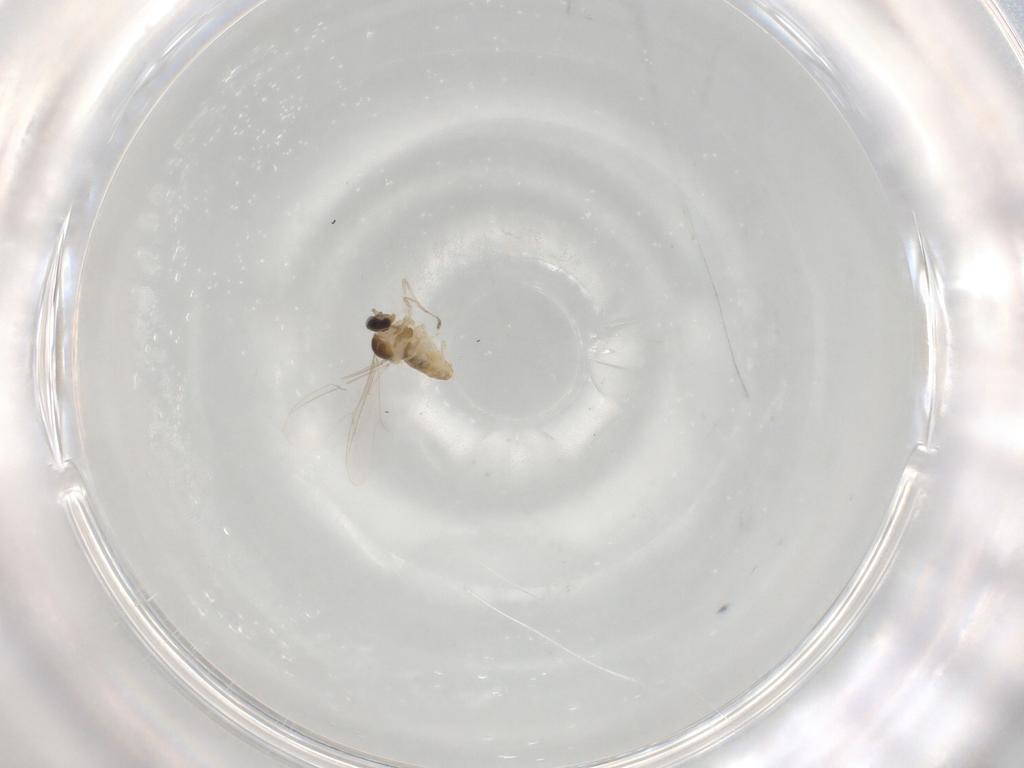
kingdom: Animalia
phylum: Arthropoda
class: Insecta
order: Diptera
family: Cecidomyiidae
